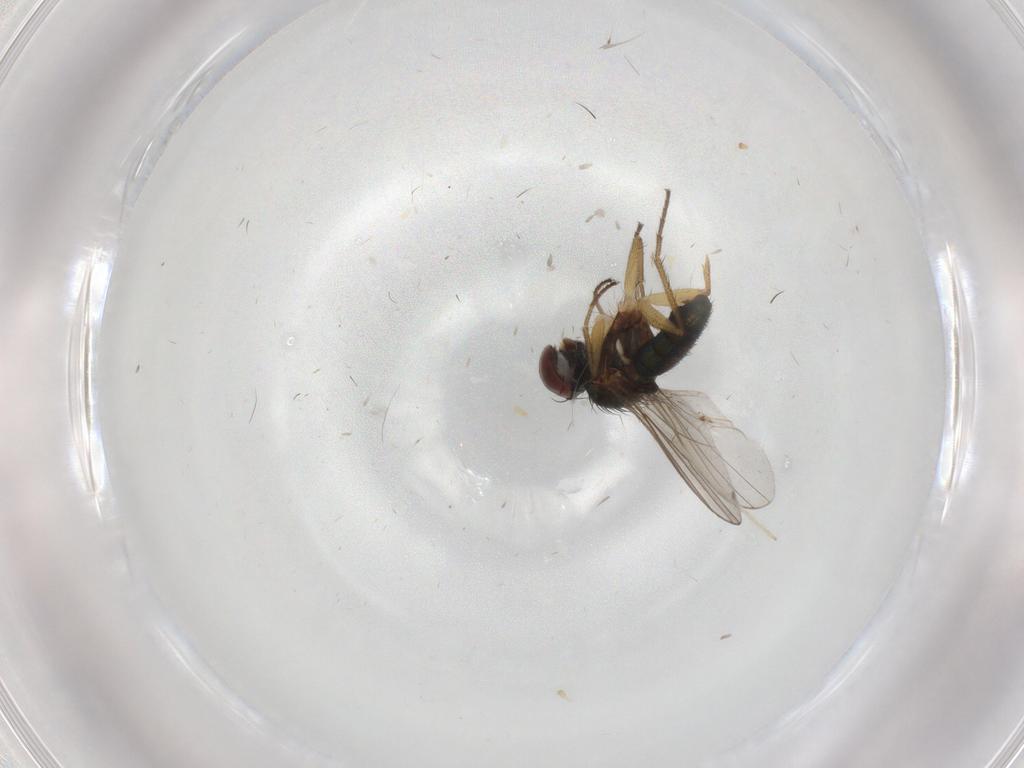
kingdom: Animalia
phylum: Arthropoda
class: Insecta
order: Diptera
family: Dolichopodidae
